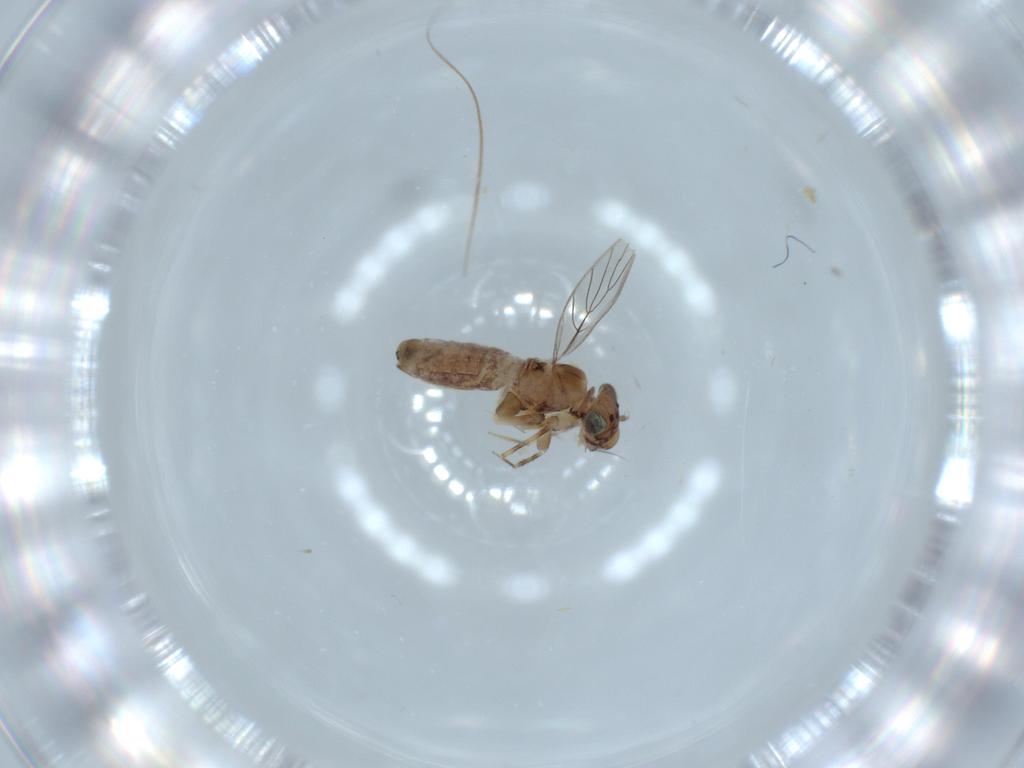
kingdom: Animalia
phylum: Arthropoda
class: Insecta
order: Psocodea
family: Lepidopsocidae
